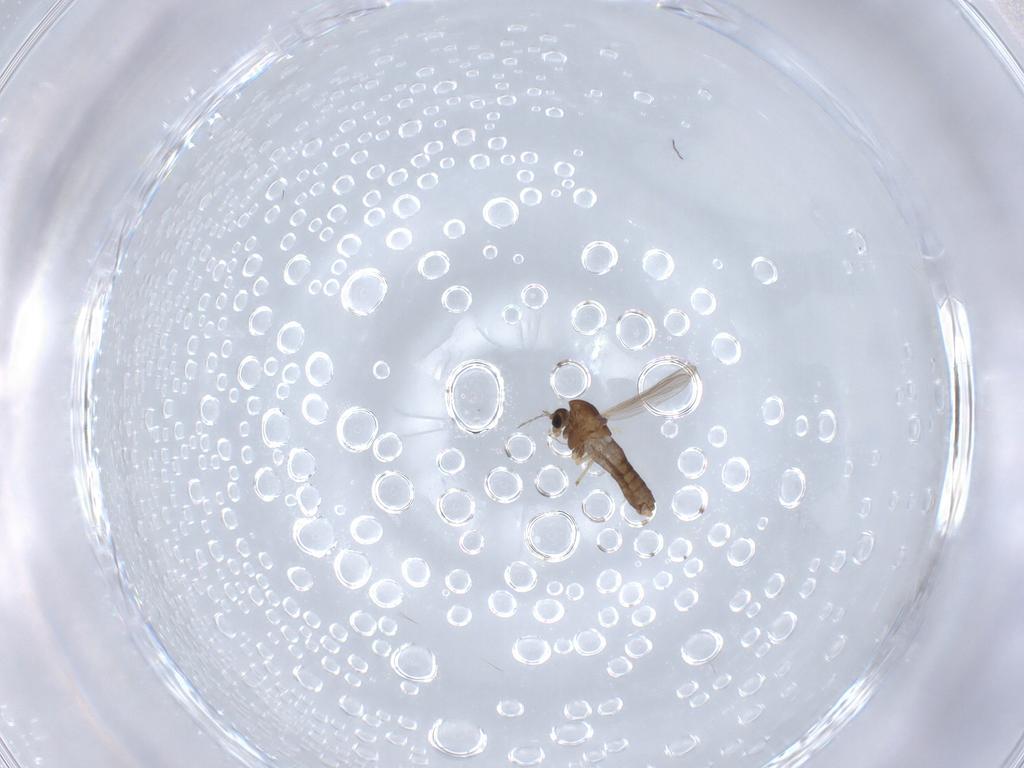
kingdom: Animalia
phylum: Arthropoda
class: Insecta
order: Diptera
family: Chironomidae
